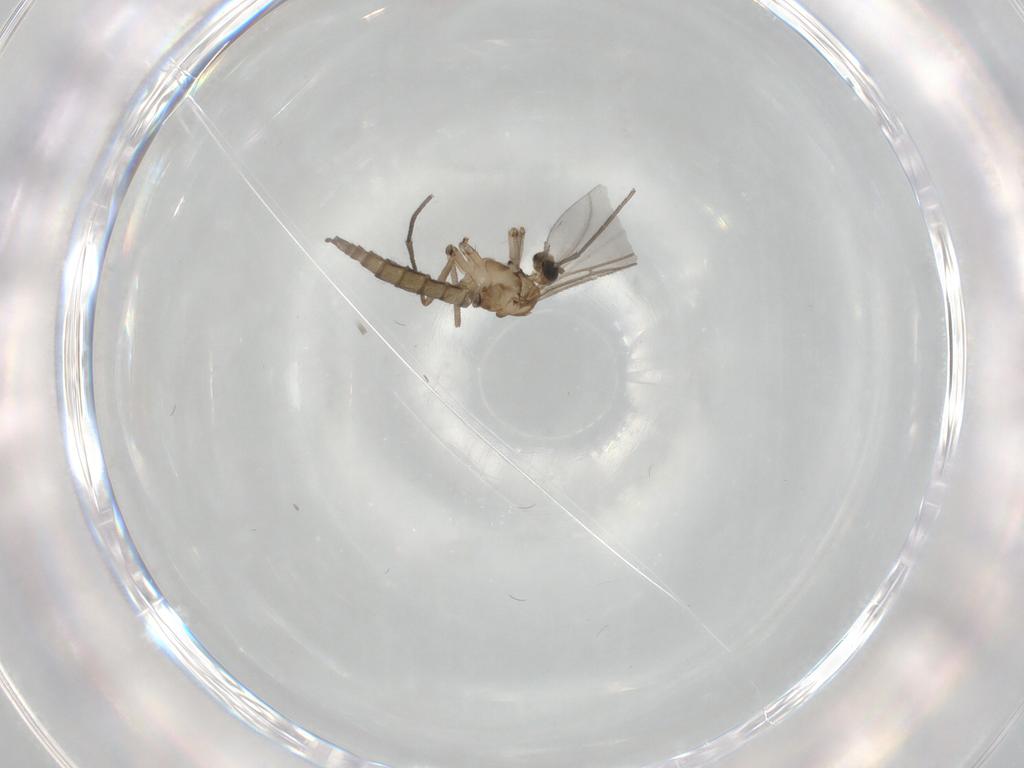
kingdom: Animalia
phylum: Arthropoda
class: Insecta
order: Diptera
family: Sciaridae
